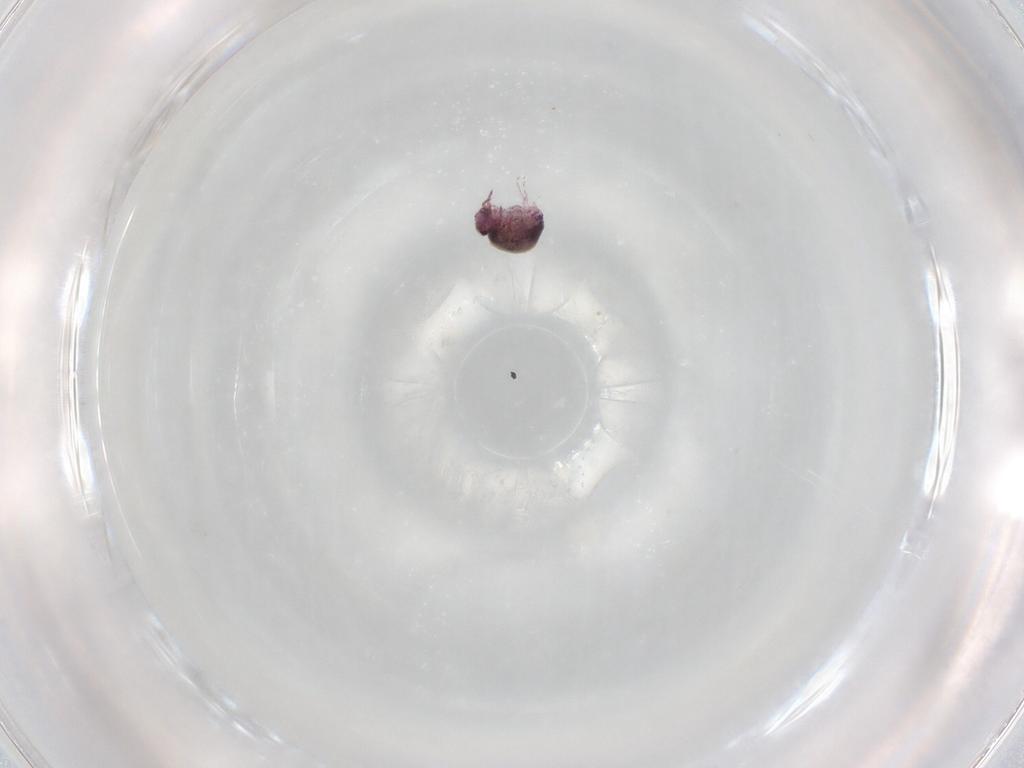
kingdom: Animalia
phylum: Arthropoda
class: Collembola
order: Symphypleona
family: Sminthurididae
